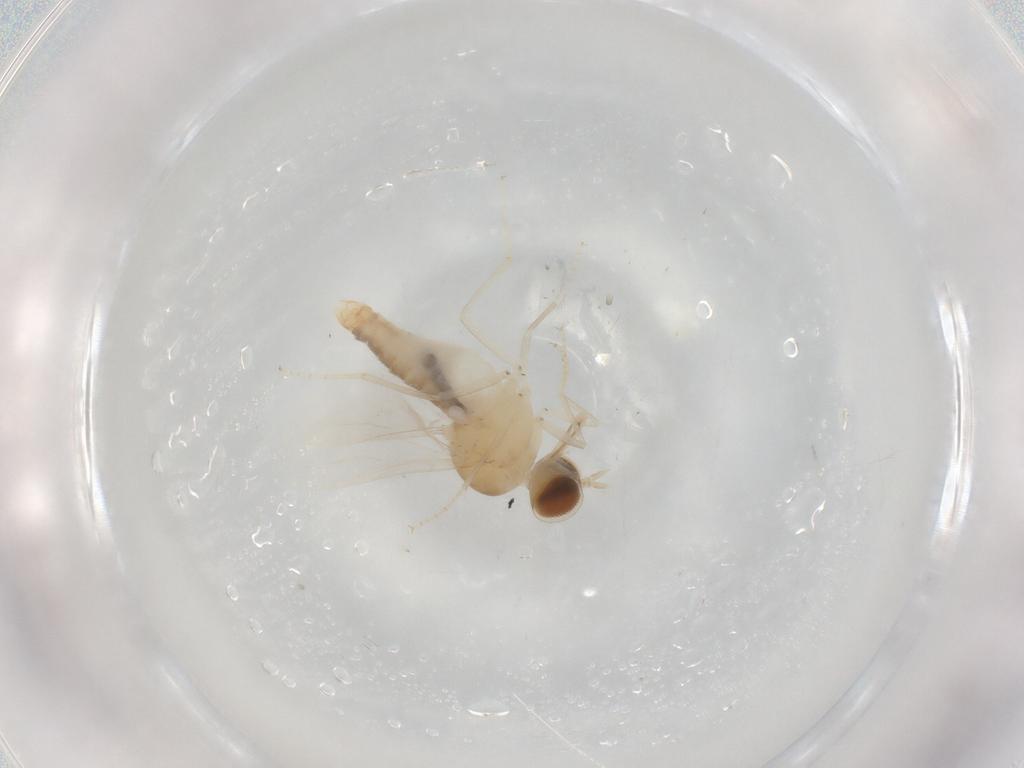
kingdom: Animalia
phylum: Arthropoda
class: Insecta
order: Diptera
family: Scenopinidae
